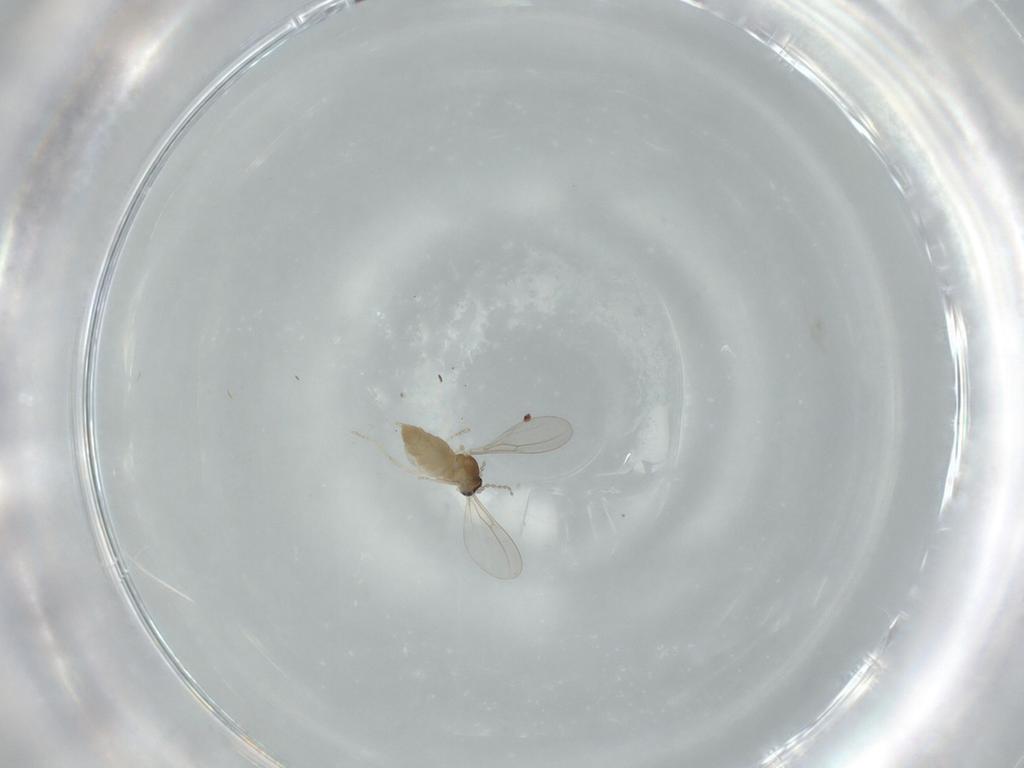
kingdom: Animalia
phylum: Arthropoda
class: Insecta
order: Diptera
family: Cecidomyiidae
